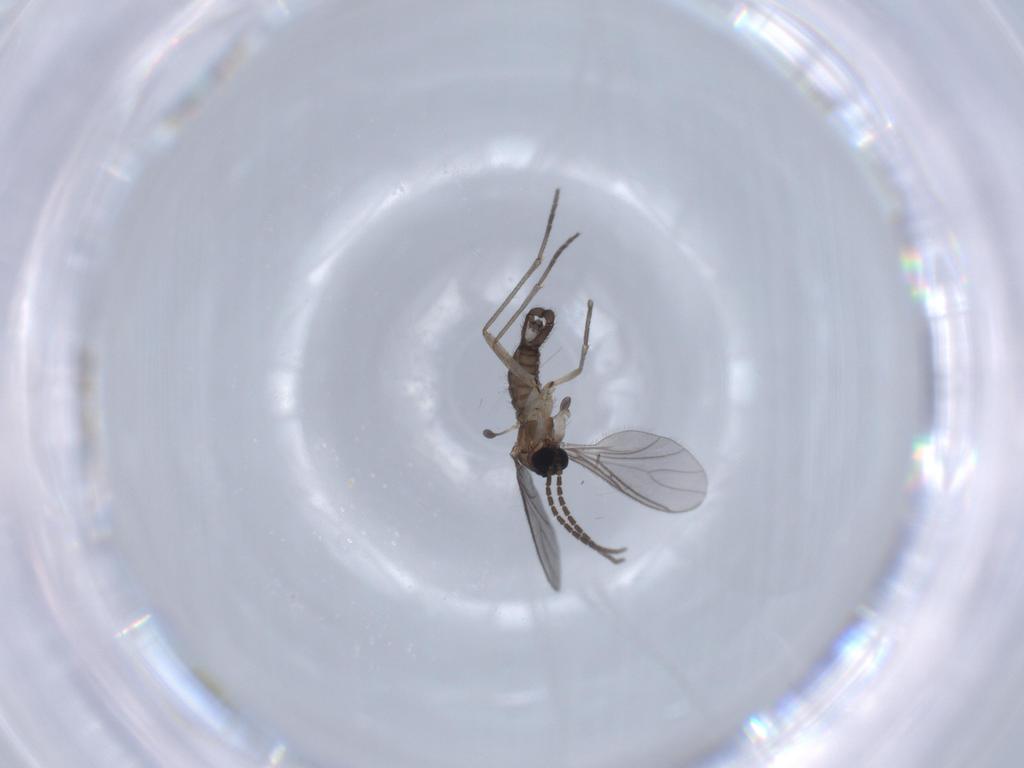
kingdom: Animalia
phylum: Arthropoda
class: Insecta
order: Diptera
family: Sciaridae
